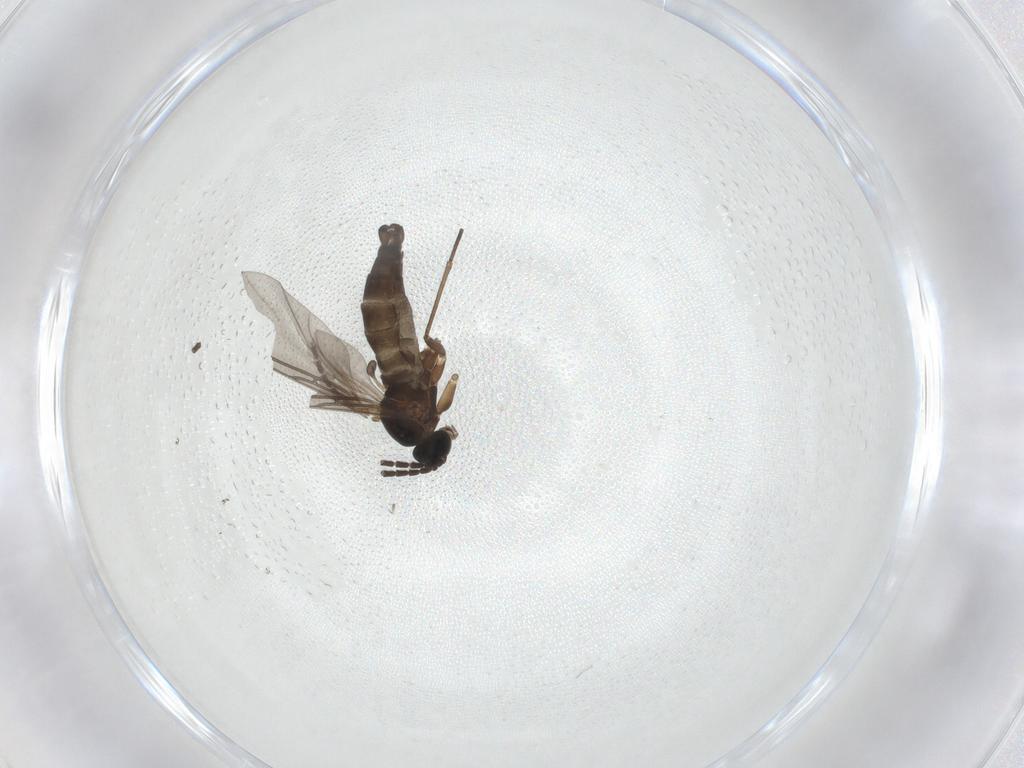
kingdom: Animalia
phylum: Arthropoda
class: Insecta
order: Diptera
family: Sciaridae
